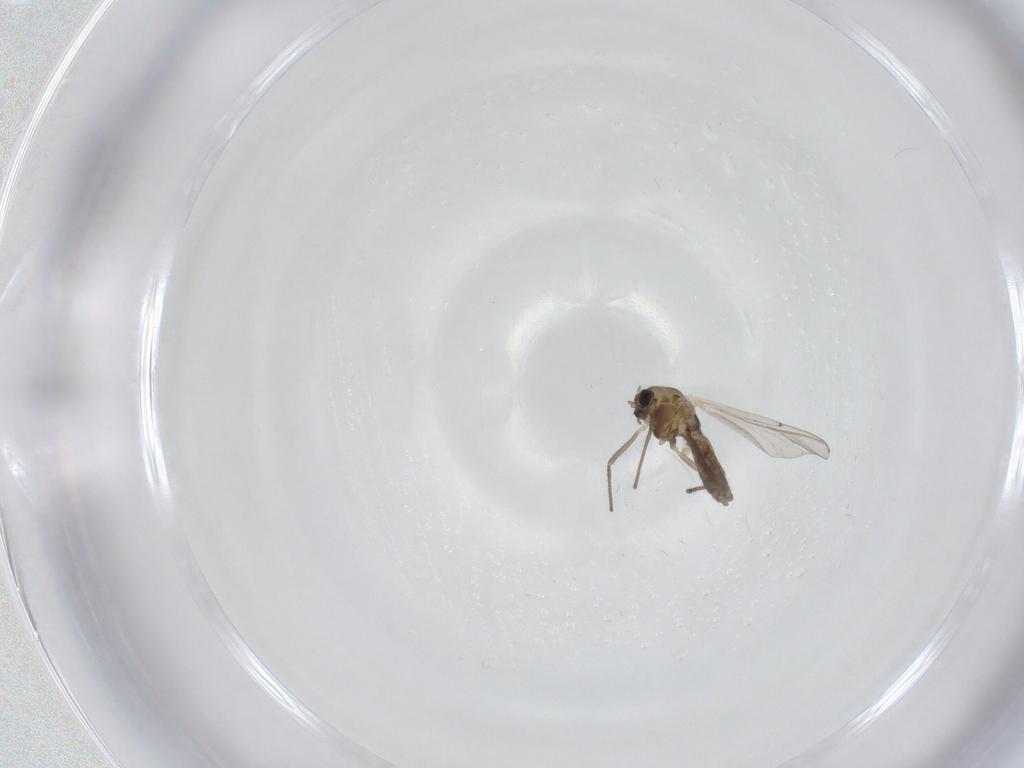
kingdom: Animalia
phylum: Arthropoda
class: Insecta
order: Diptera
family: Chironomidae
